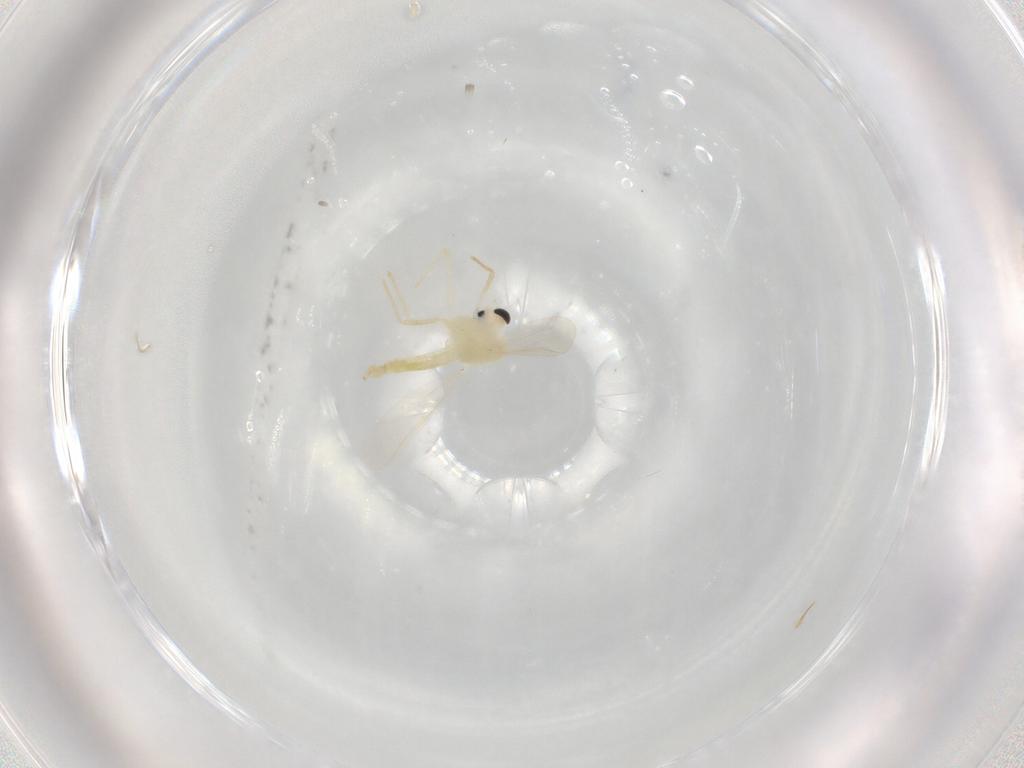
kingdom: Animalia
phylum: Arthropoda
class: Insecta
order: Diptera
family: Chironomidae
